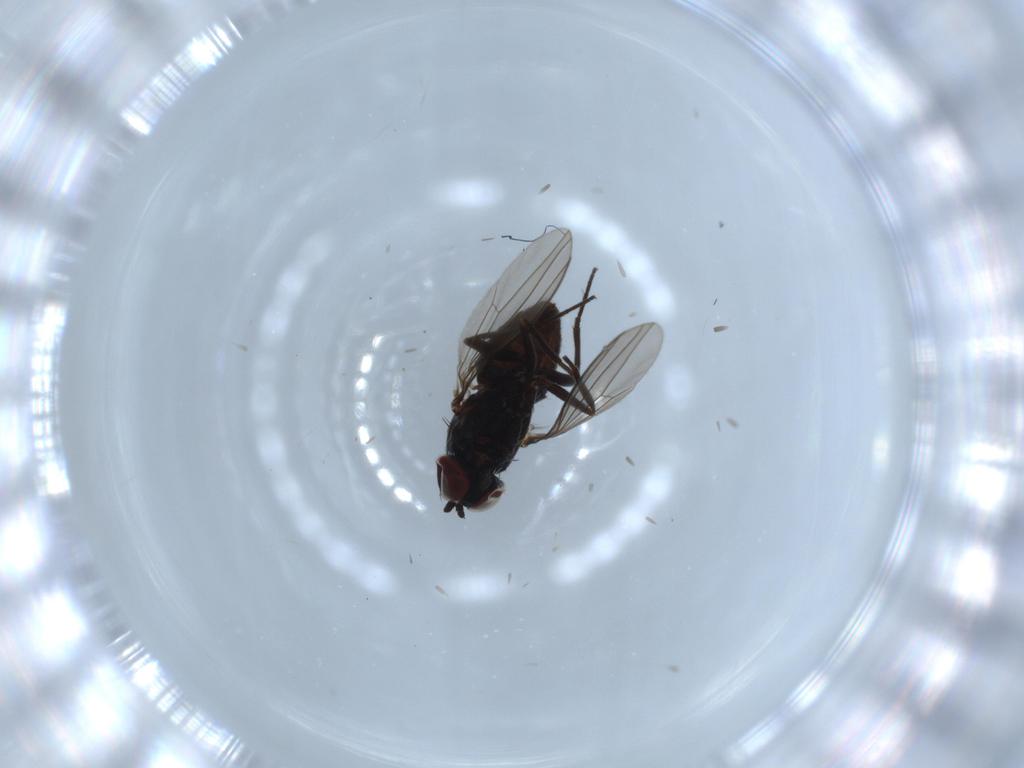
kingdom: Animalia
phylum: Arthropoda
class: Insecta
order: Diptera
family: Dolichopodidae
